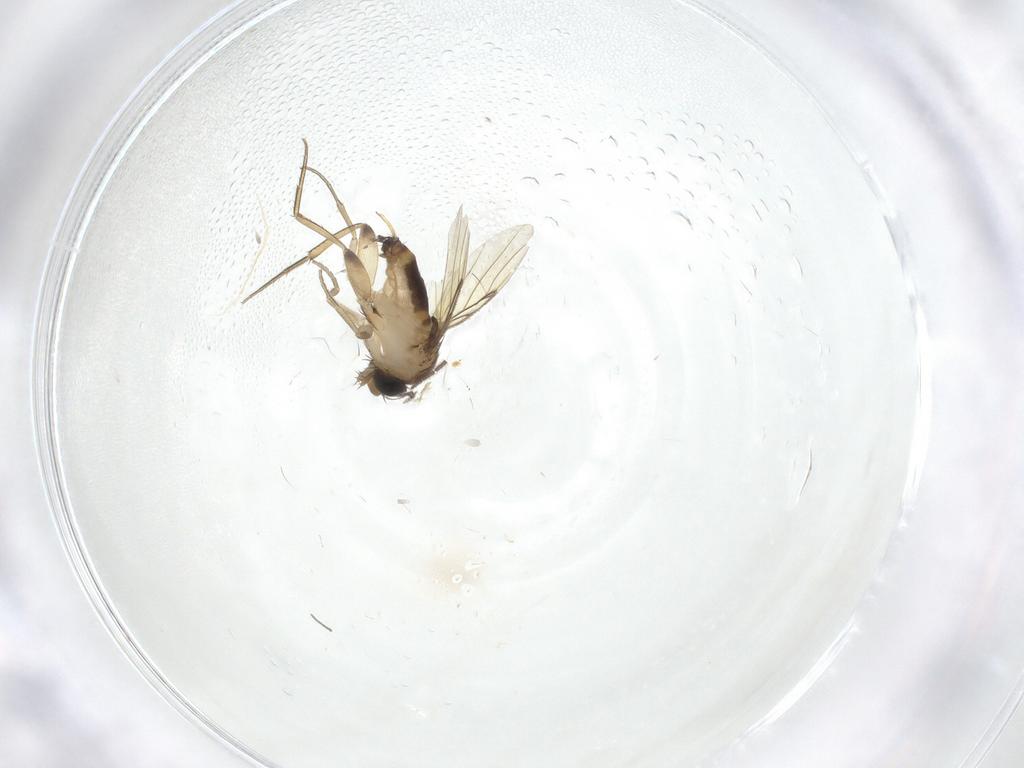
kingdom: Animalia
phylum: Arthropoda
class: Insecta
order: Diptera
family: Phoridae
